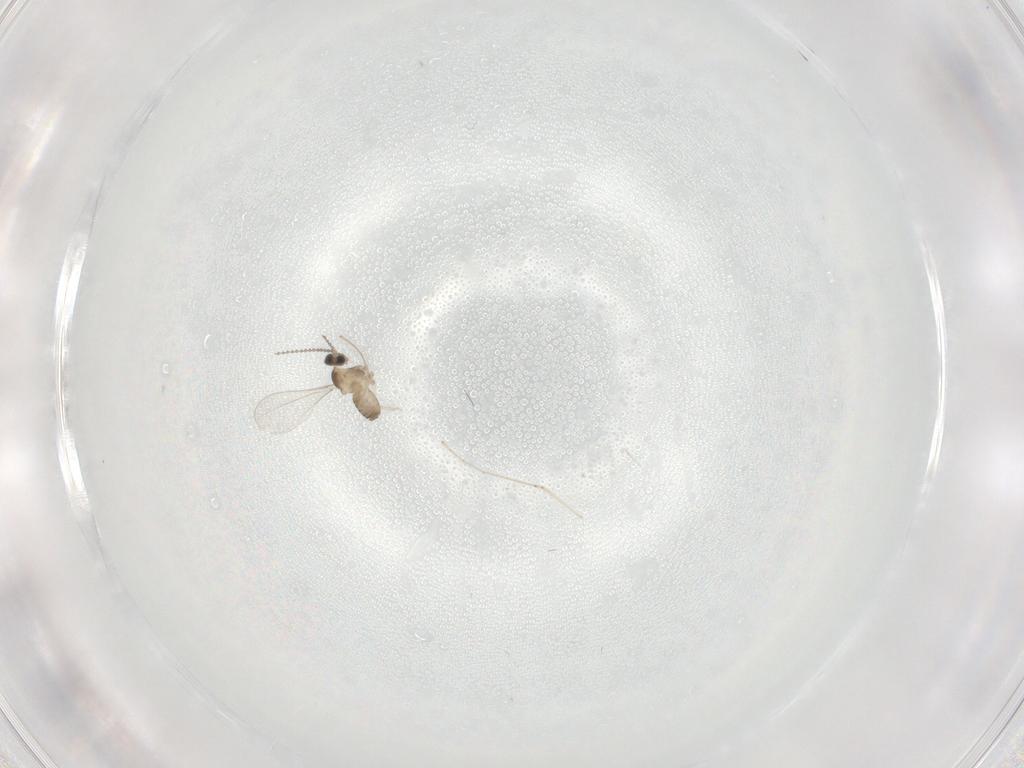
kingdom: Animalia
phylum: Arthropoda
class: Insecta
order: Diptera
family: Cecidomyiidae
